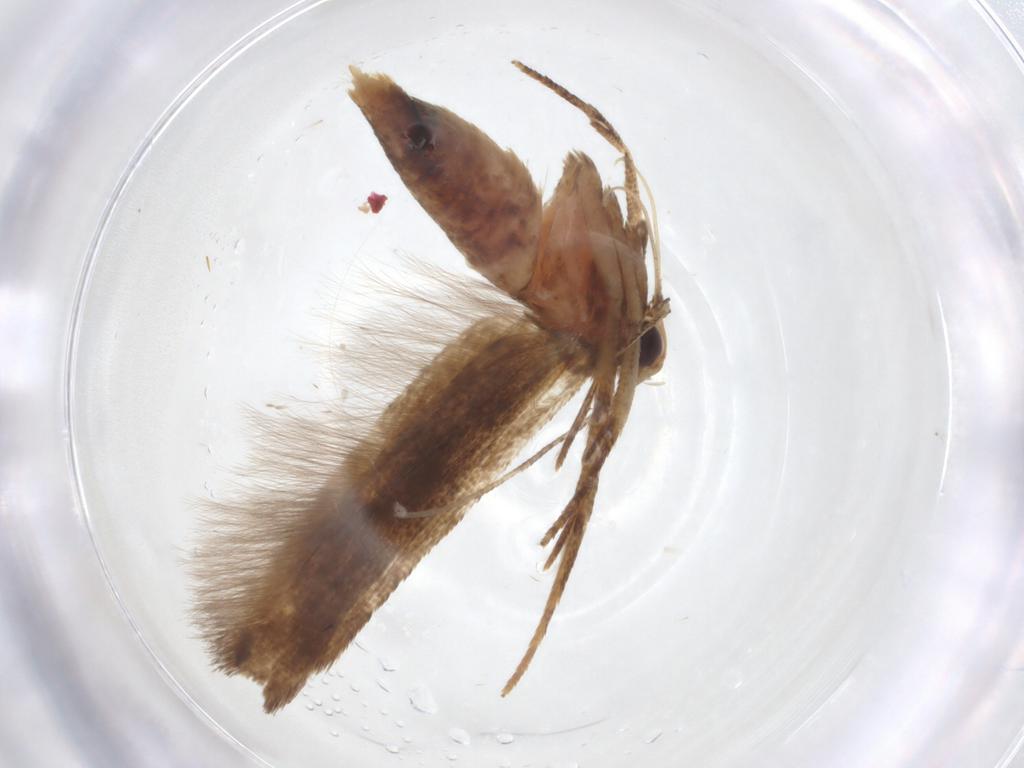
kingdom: Animalia
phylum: Arthropoda
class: Insecta
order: Lepidoptera
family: Cosmopterigidae
